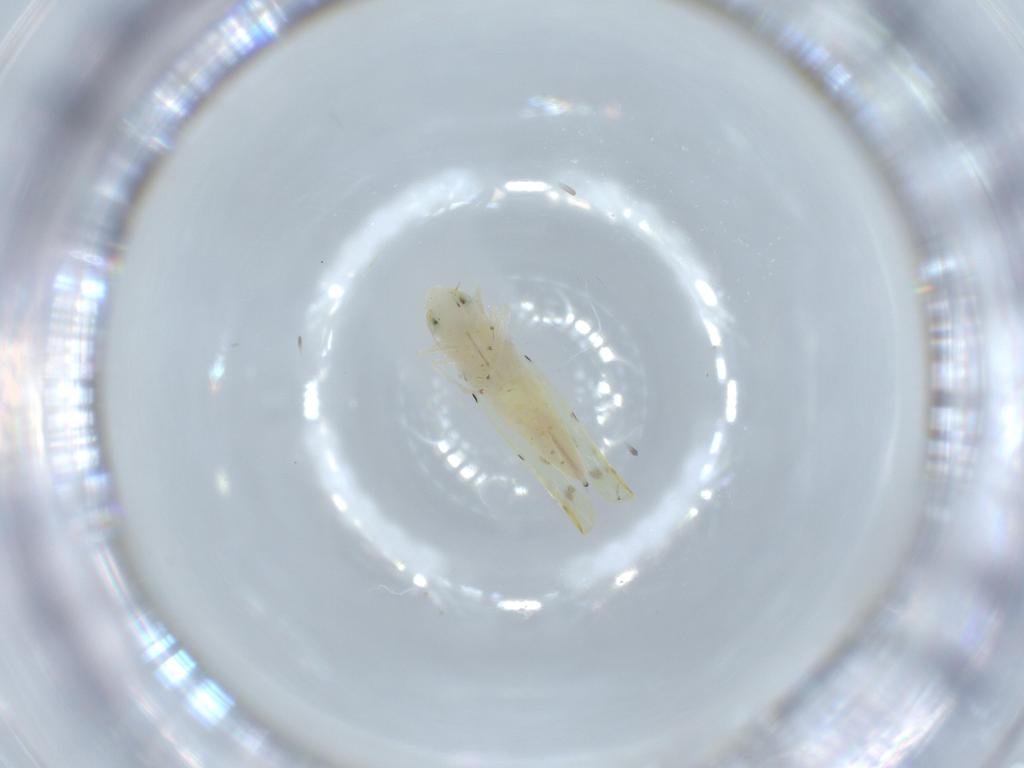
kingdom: Animalia
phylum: Arthropoda
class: Insecta
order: Hemiptera
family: Cicadellidae
